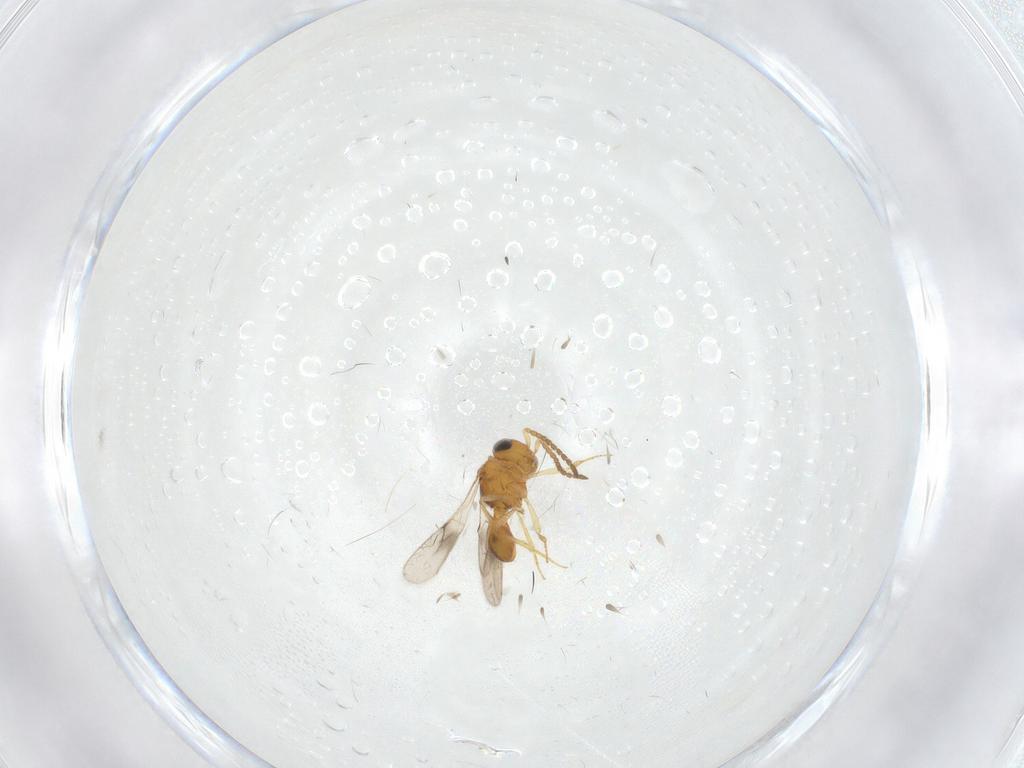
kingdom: Animalia
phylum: Arthropoda
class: Insecta
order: Hymenoptera
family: Scelionidae
